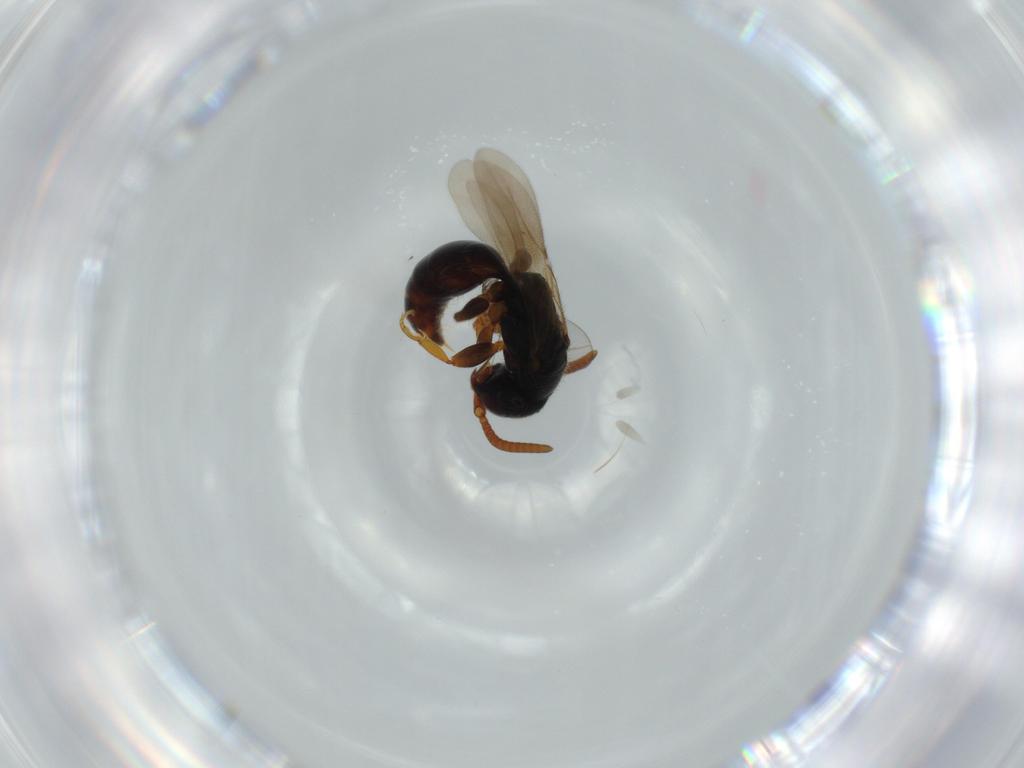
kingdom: Animalia
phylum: Arthropoda
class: Insecta
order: Hymenoptera
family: Bethylidae
